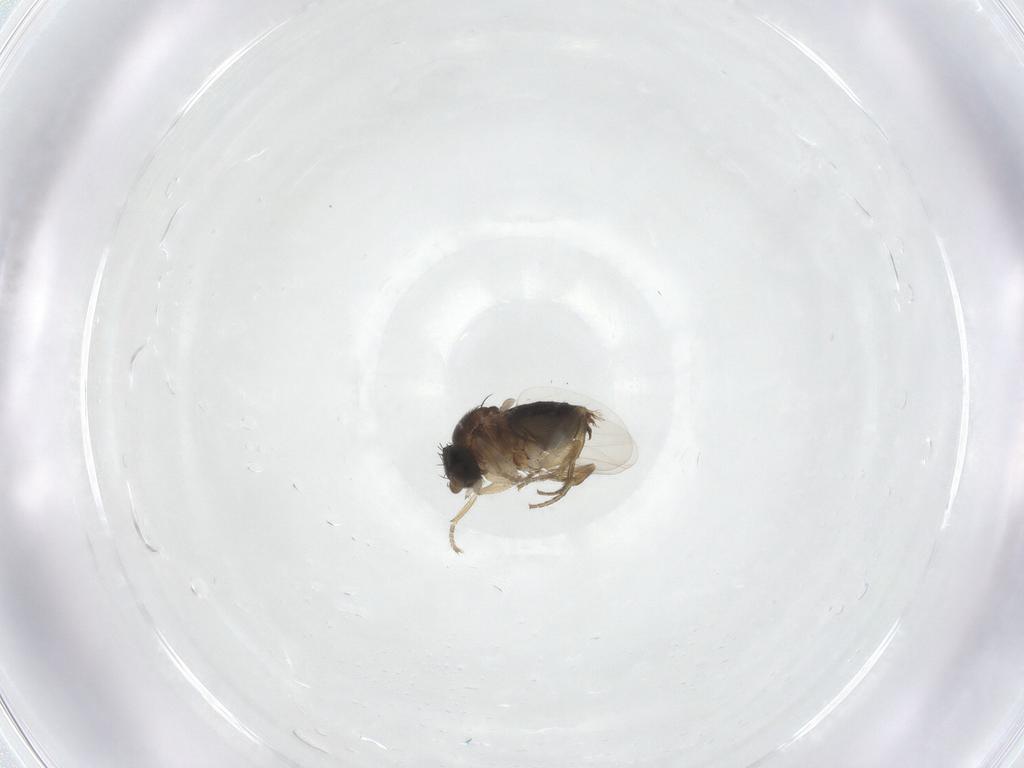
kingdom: Animalia
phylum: Arthropoda
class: Insecta
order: Diptera
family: Phoridae
